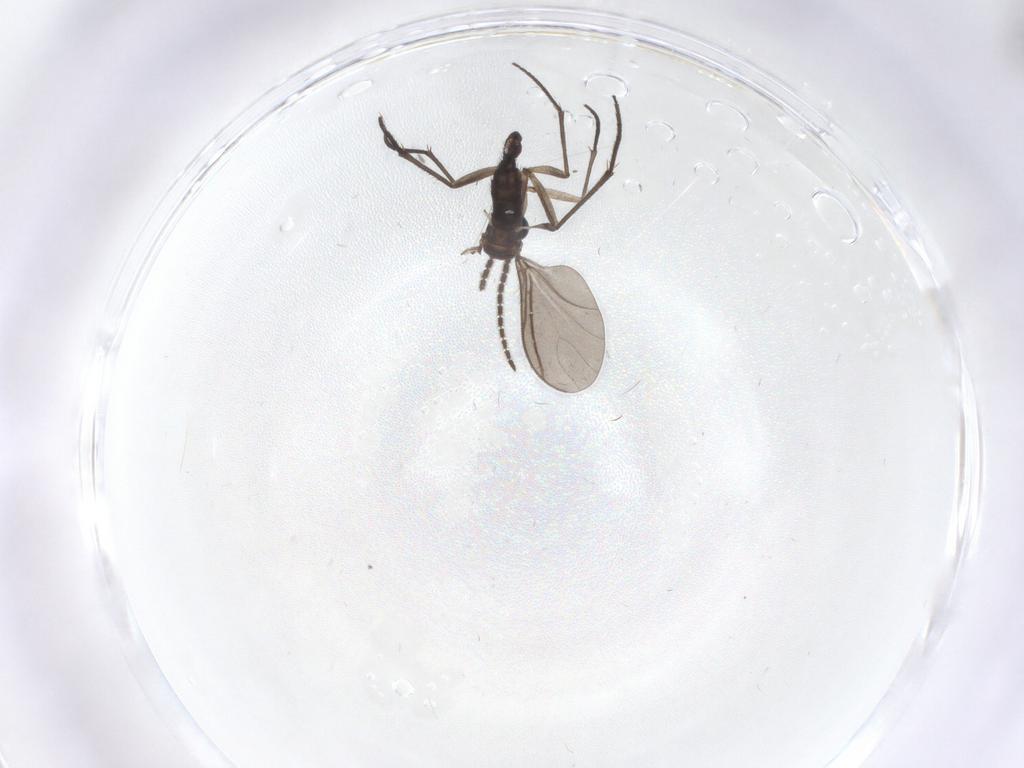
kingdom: Animalia
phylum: Arthropoda
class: Insecta
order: Diptera
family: Sciaridae
